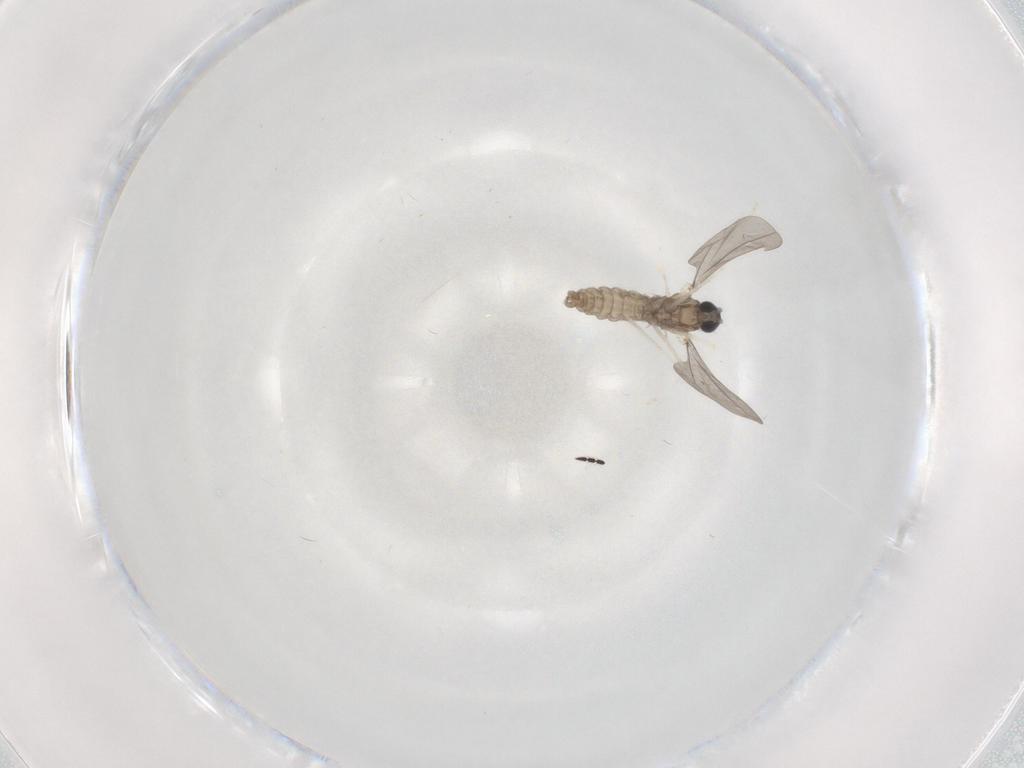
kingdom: Animalia
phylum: Arthropoda
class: Insecta
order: Diptera
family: Scatopsidae
